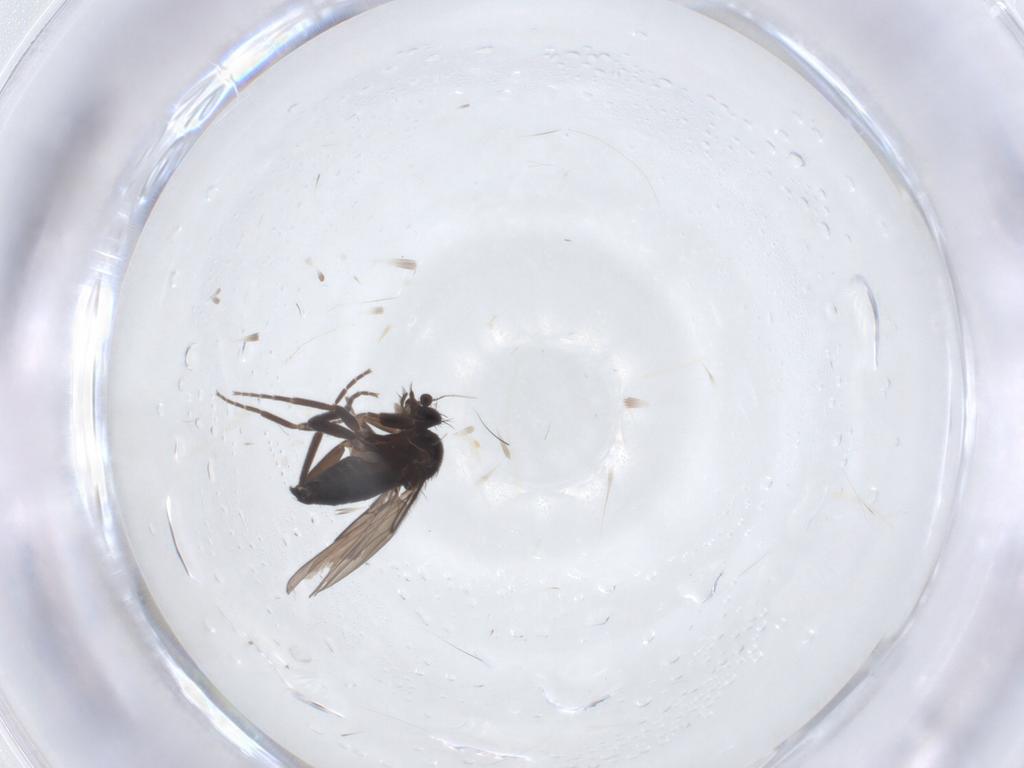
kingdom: Animalia
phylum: Arthropoda
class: Insecta
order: Diptera
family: Phoridae
